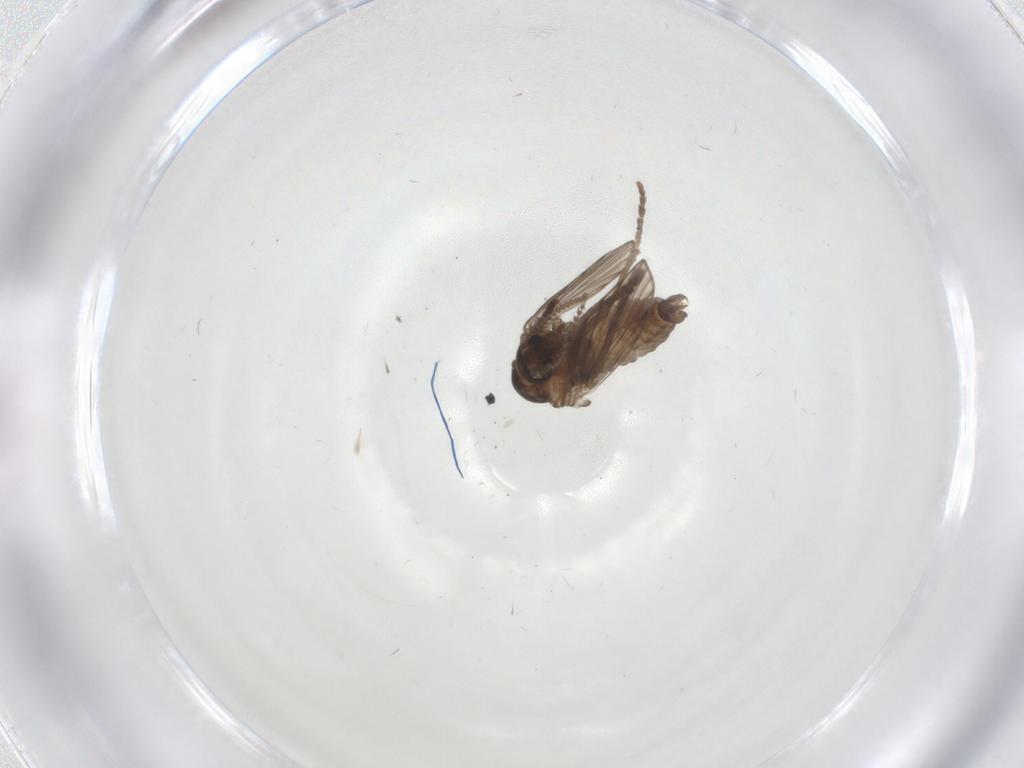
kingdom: Animalia
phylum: Arthropoda
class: Insecta
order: Diptera
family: Psychodidae
